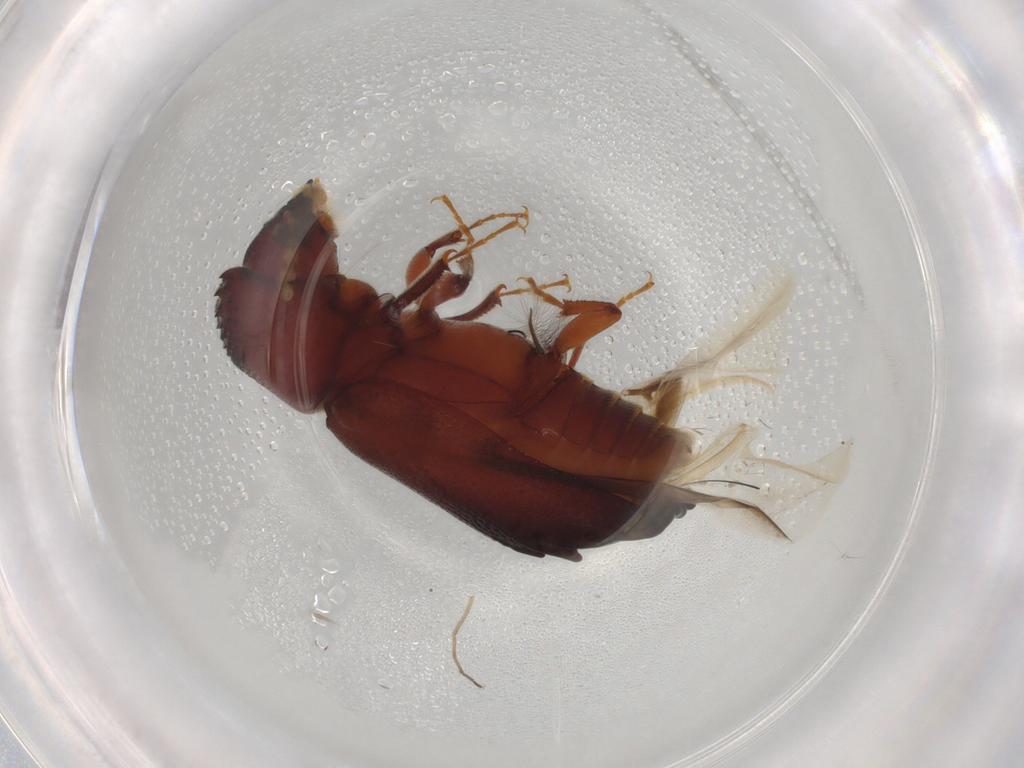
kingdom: Animalia
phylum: Arthropoda
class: Insecta
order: Coleoptera
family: Bostrichidae
